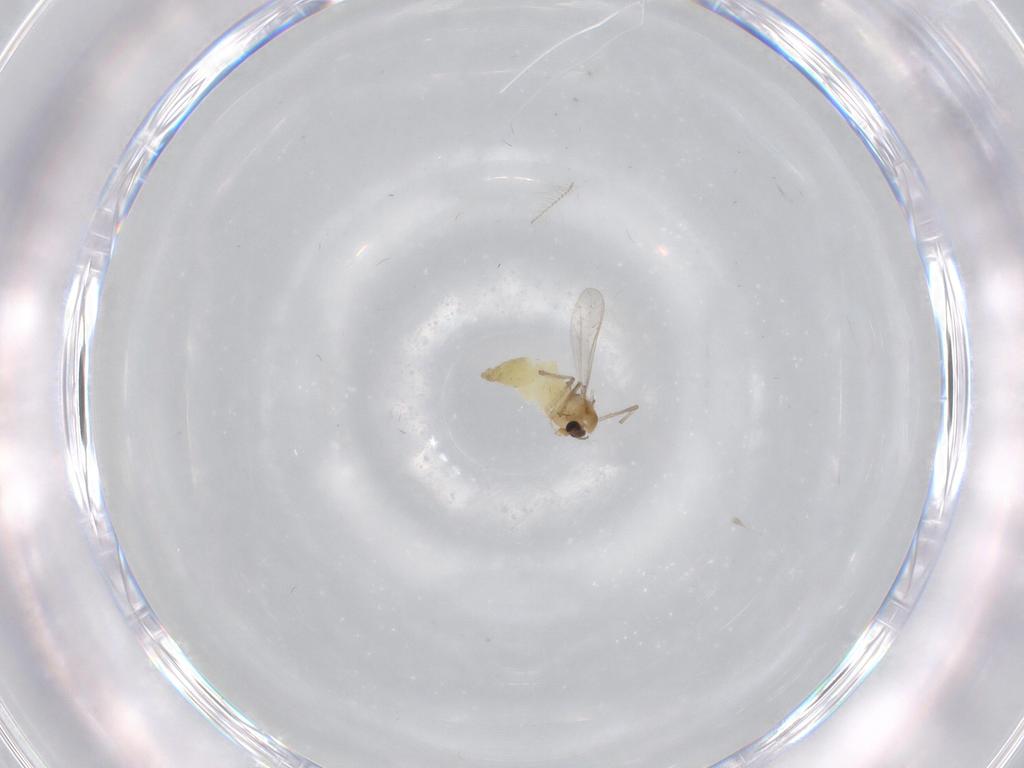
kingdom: Animalia
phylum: Arthropoda
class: Insecta
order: Diptera
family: Chironomidae
